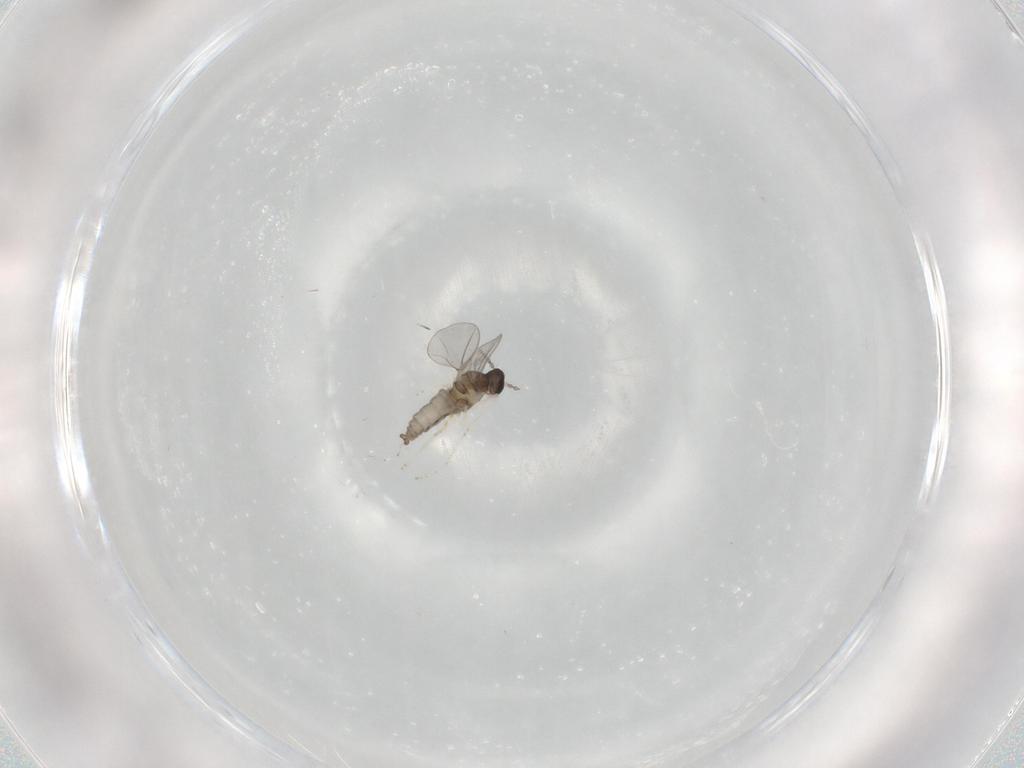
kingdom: Animalia
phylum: Arthropoda
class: Insecta
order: Diptera
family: Cecidomyiidae
